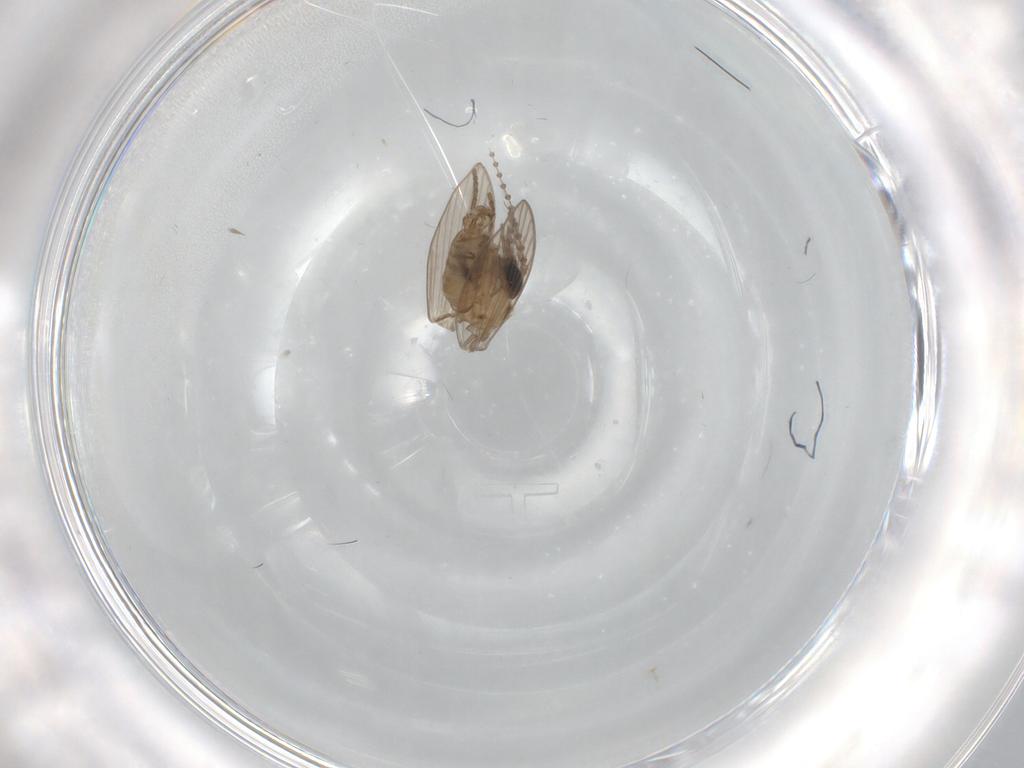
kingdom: Animalia
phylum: Arthropoda
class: Insecta
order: Diptera
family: Psychodidae
